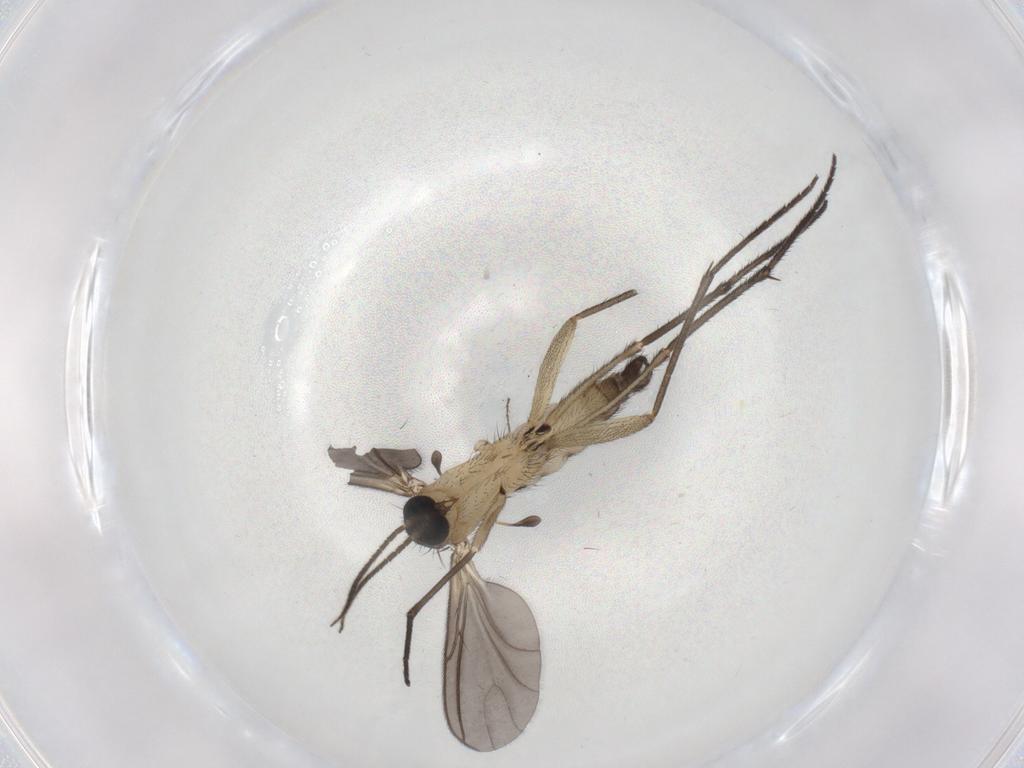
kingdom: Animalia
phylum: Arthropoda
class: Insecta
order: Diptera
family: Sciaridae
